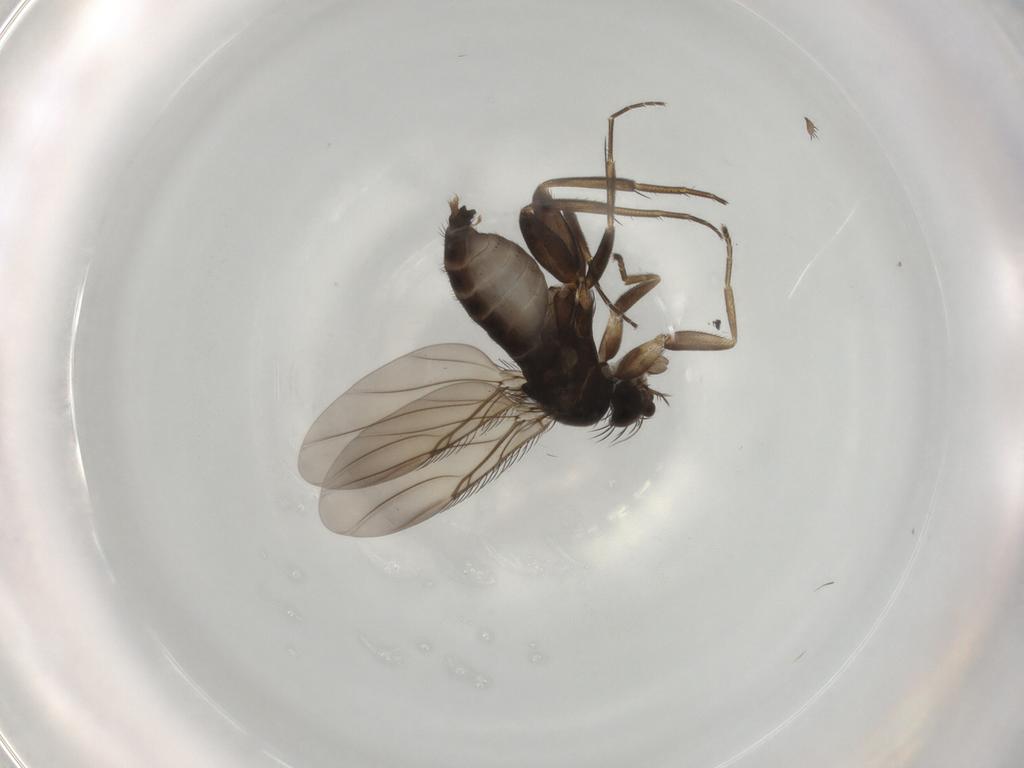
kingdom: Animalia
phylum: Arthropoda
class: Insecta
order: Diptera
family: Phoridae
